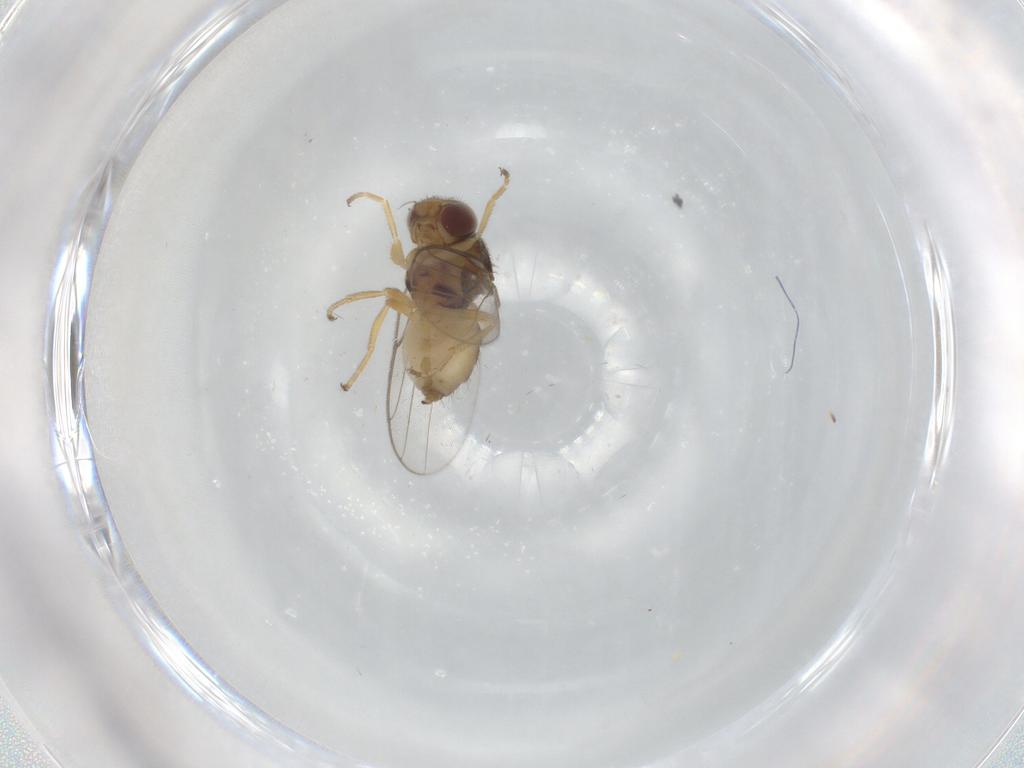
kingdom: Animalia
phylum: Arthropoda
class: Insecta
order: Diptera
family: Chloropidae
